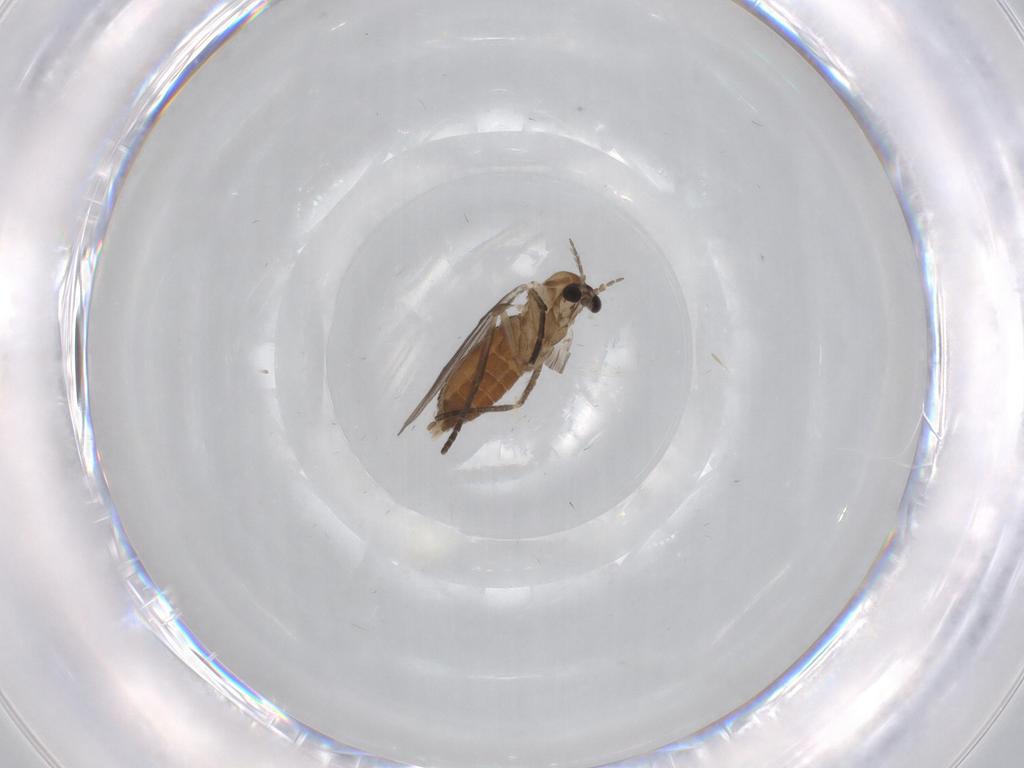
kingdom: Animalia
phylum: Arthropoda
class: Insecta
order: Diptera
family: Limoniidae
